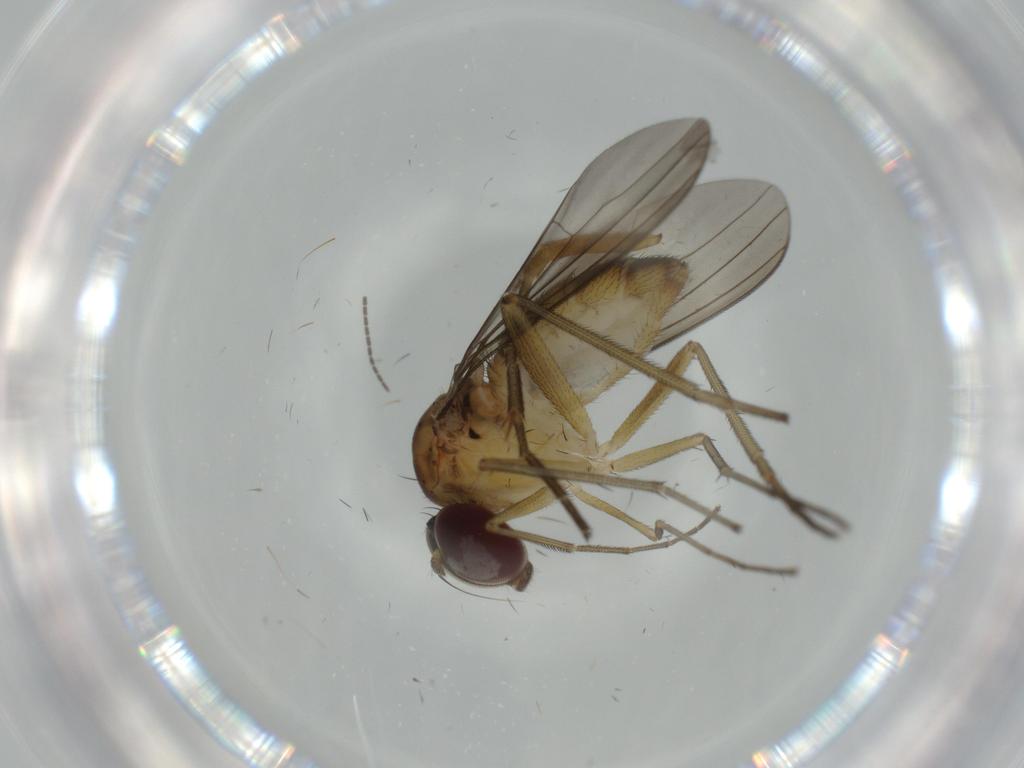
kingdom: Animalia
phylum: Arthropoda
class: Insecta
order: Diptera
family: Dolichopodidae
